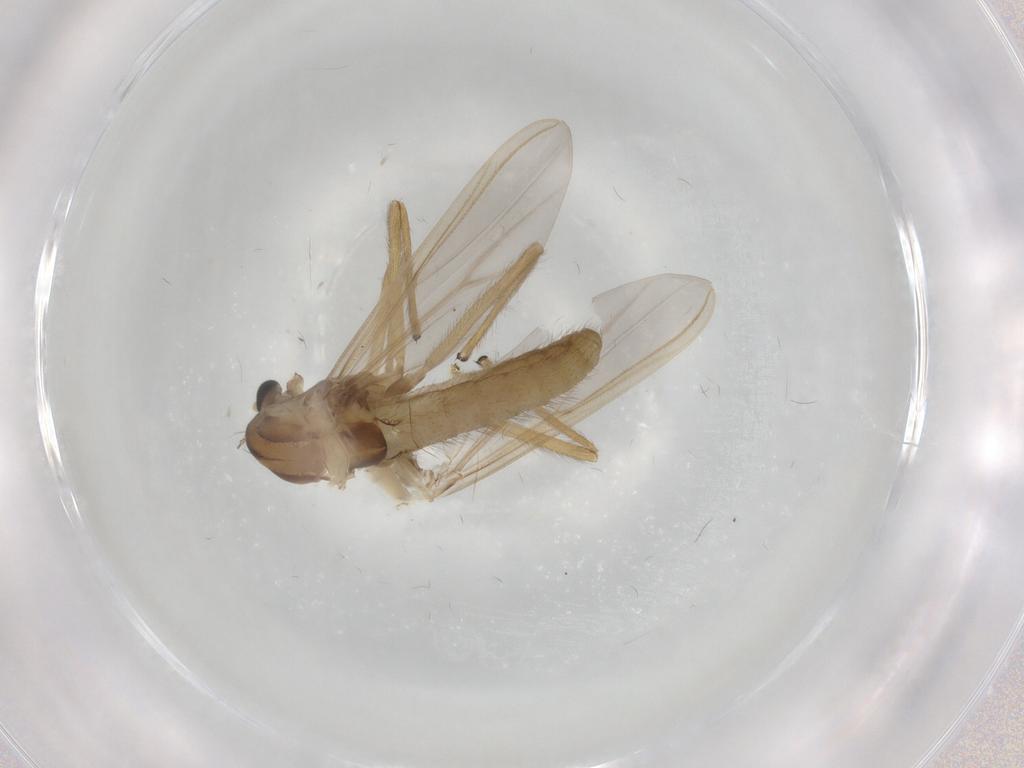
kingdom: Animalia
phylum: Arthropoda
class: Insecta
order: Diptera
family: Chironomidae
